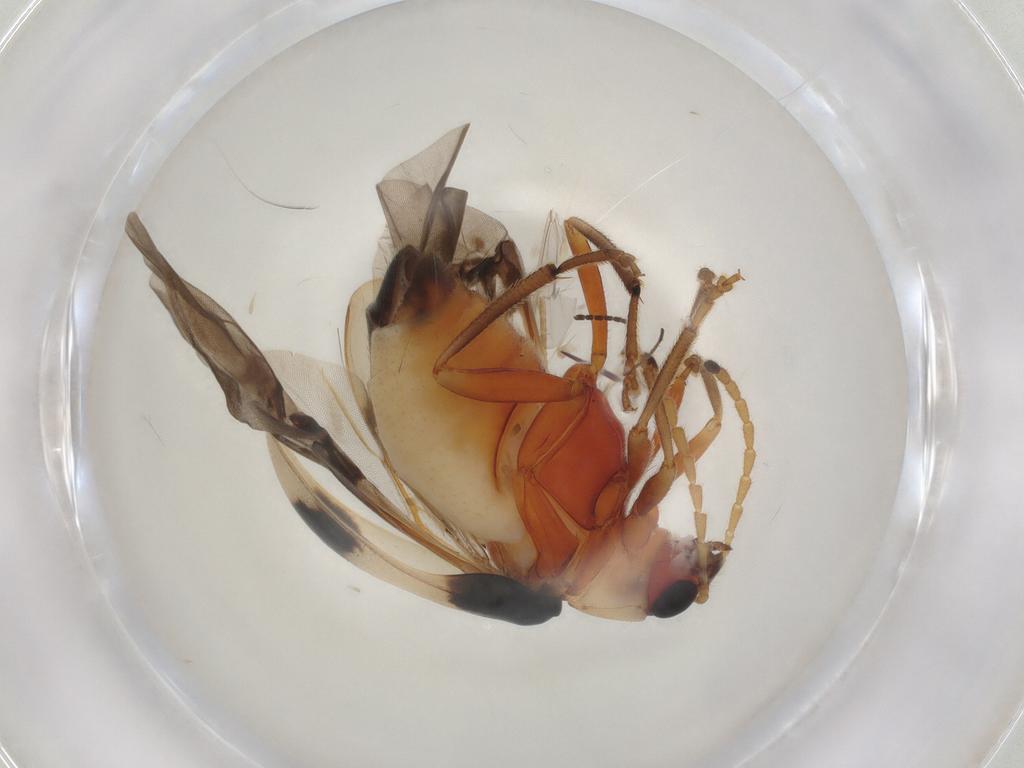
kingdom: Animalia
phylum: Arthropoda
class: Insecta
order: Coleoptera
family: Chrysomelidae
